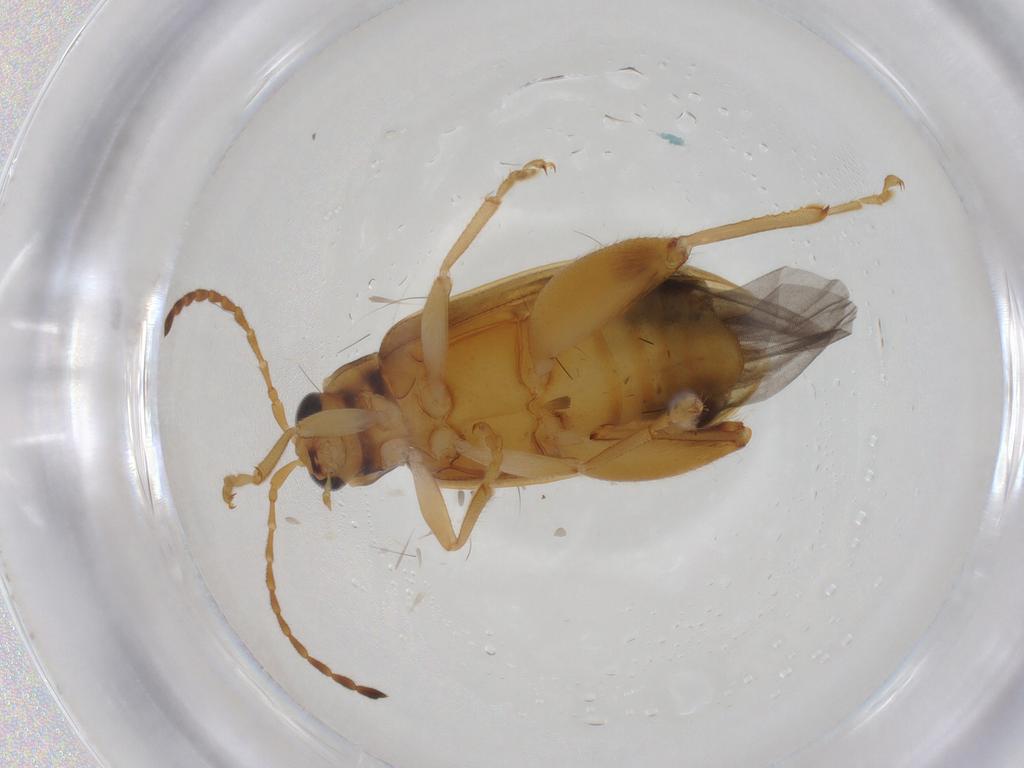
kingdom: Animalia
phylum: Arthropoda
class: Insecta
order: Coleoptera
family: Chrysomelidae
